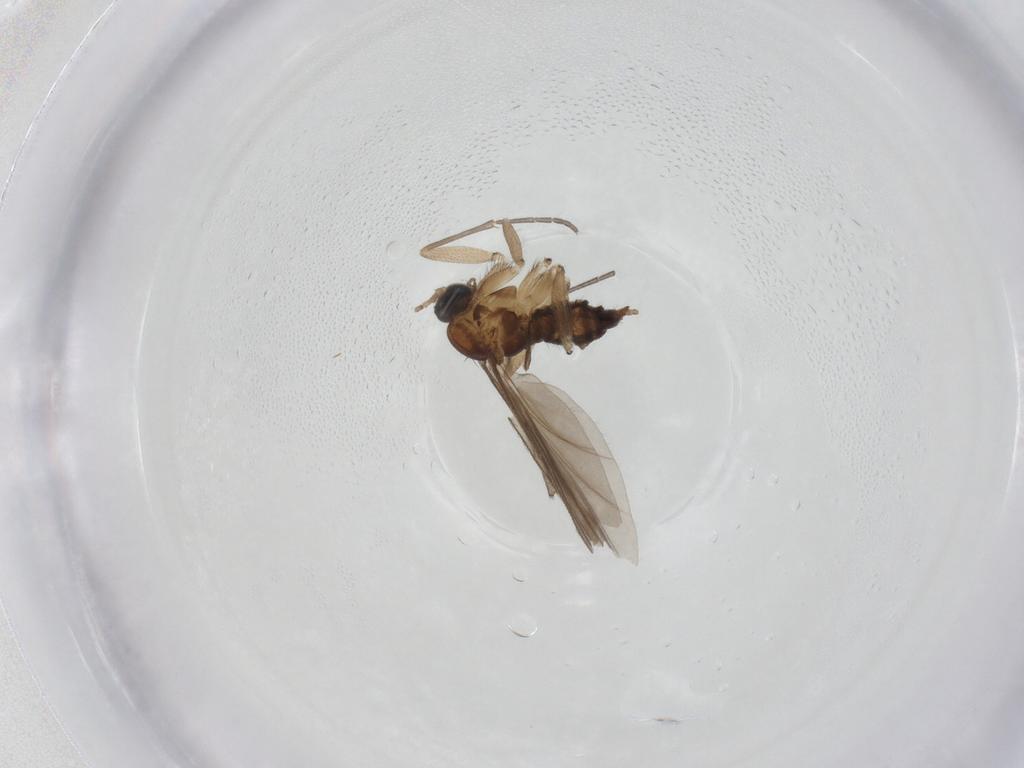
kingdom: Animalia
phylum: Arthropoda
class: Insecta
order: Diptera
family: Sciaridae
